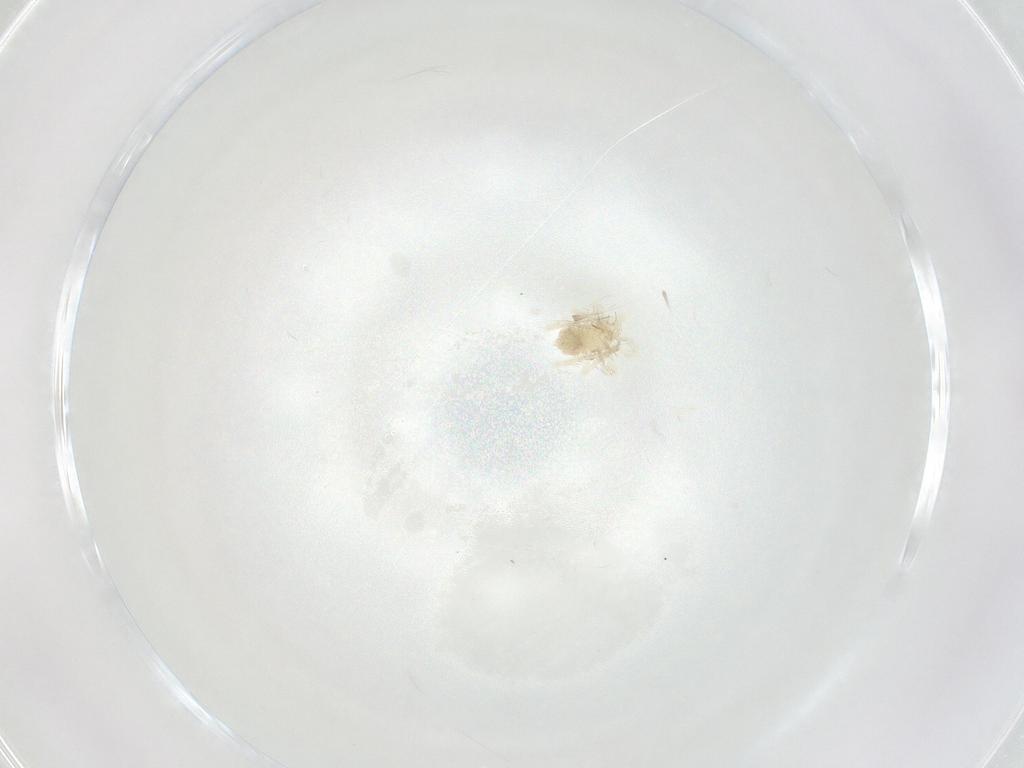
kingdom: Animalia
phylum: Arthropoda
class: Arachnida
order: Trombidiformes
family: Anystidae
